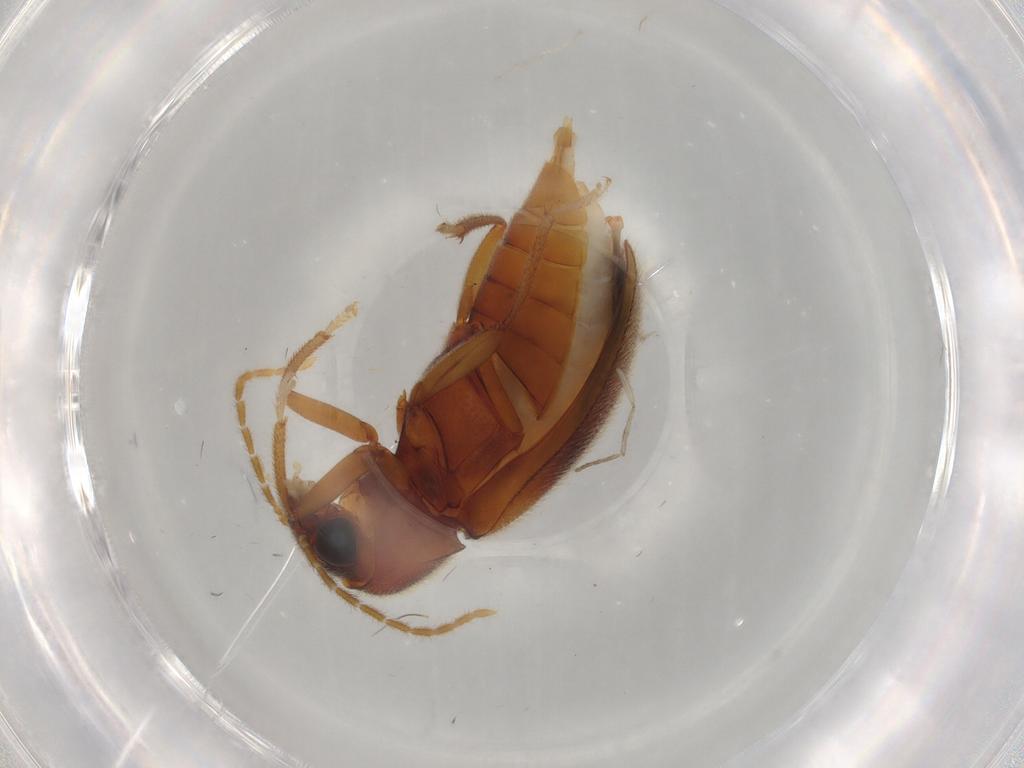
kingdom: Animalia
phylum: Arthropoda
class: Insecta
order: Coleoptera
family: Ptilodactylidae
